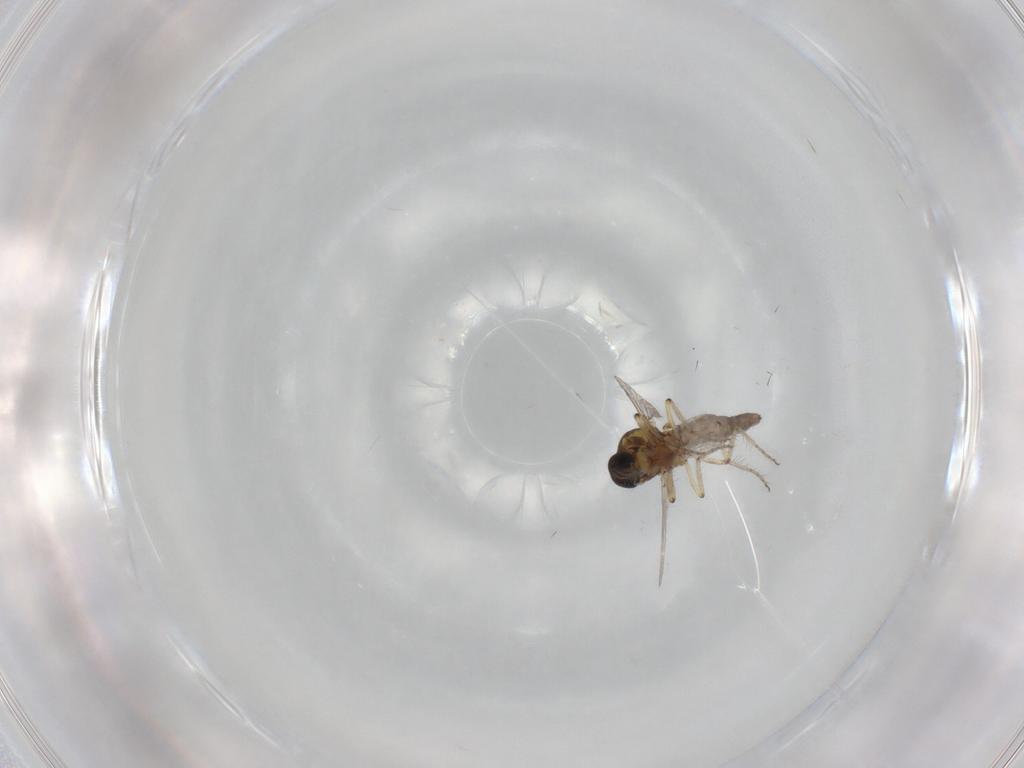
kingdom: Animalia
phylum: Arthropoda
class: Insecta
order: Diptera
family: Ceratopogonidae
